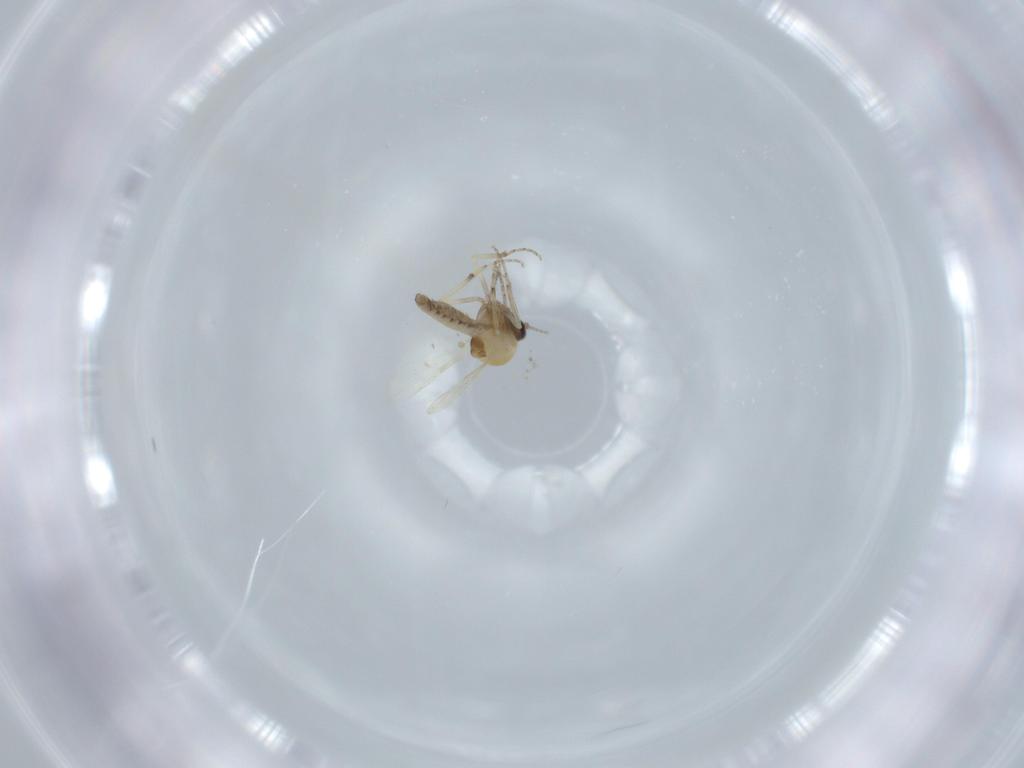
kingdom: Animalia
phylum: Arthropoda
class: Insecta
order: Diptera
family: Ceratopogonidae
